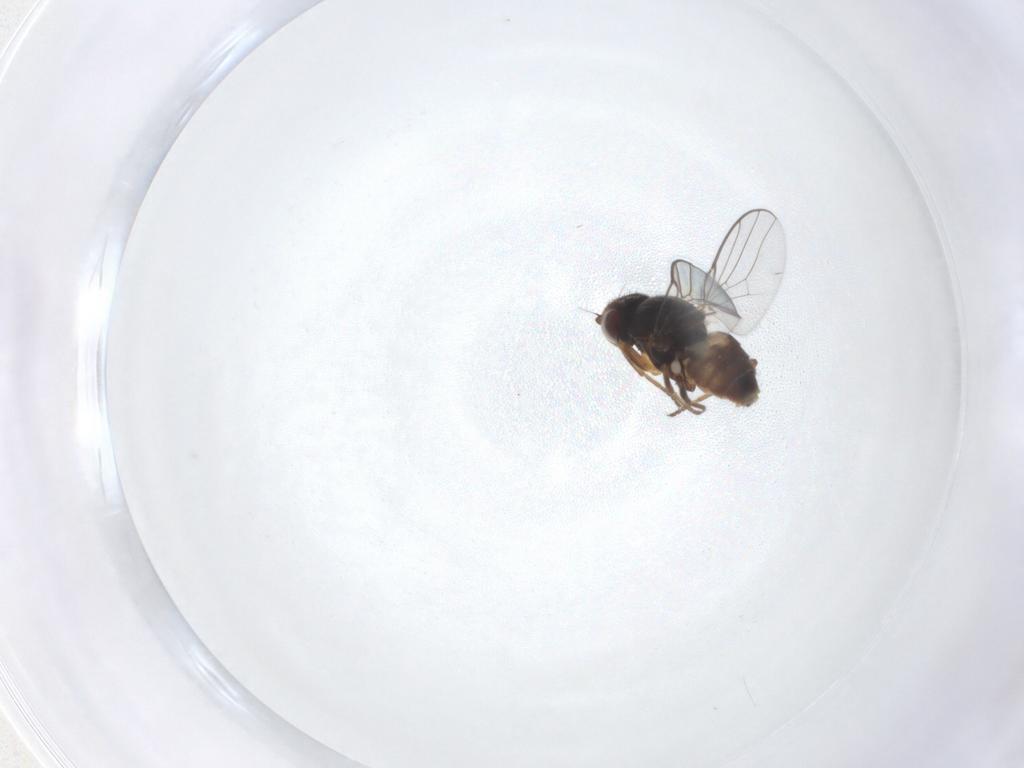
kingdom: Animalia
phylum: Arthropoda
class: Insecta
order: Diptera
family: Chloropidae
